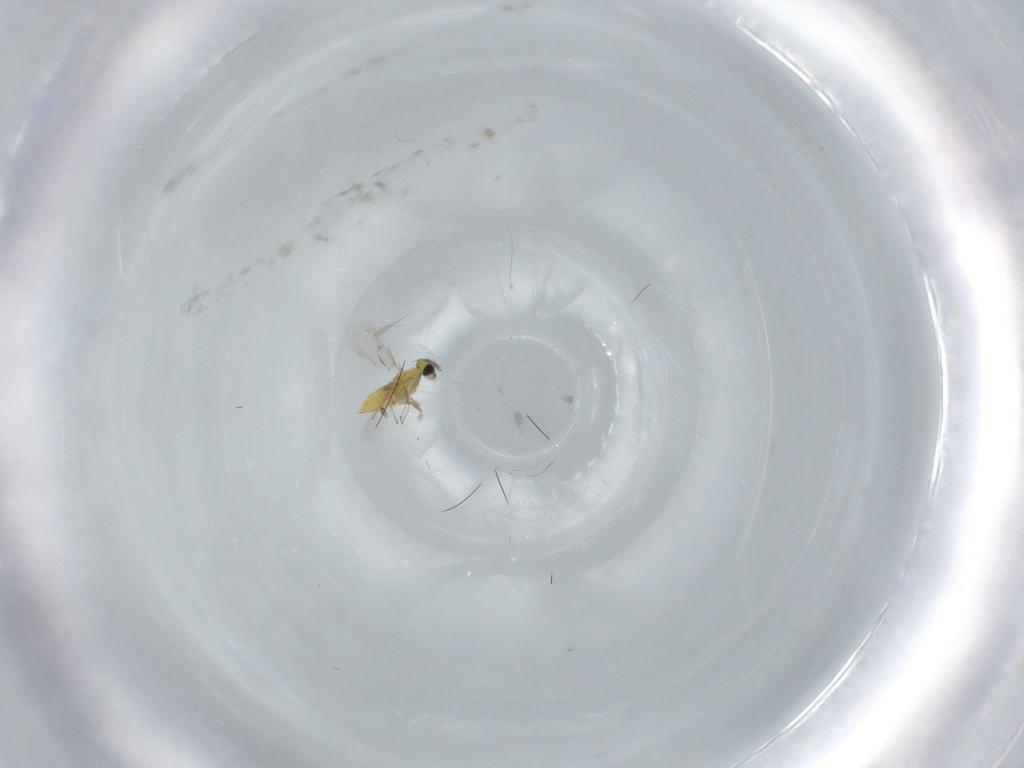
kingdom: Animalia
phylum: Arthropoda
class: Insecta
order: Hymenoptera
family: Trichogrammatidae
